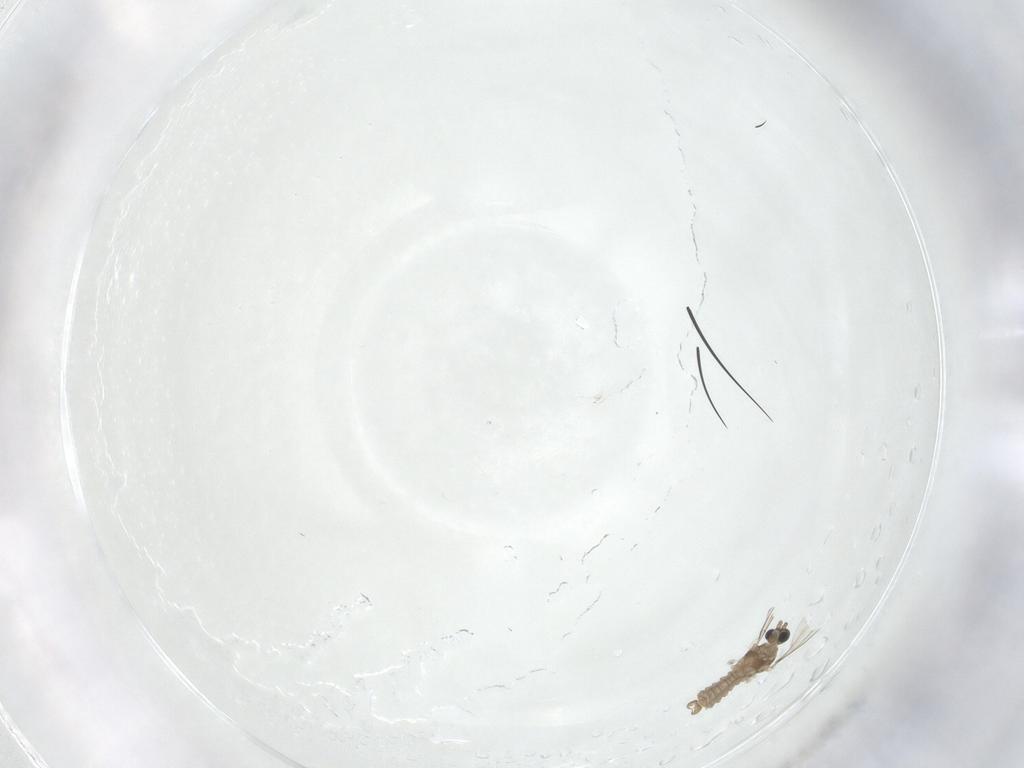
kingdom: Animalia
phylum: Arthropoda
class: Insecta
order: Diptera
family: Cecidomyiidae
